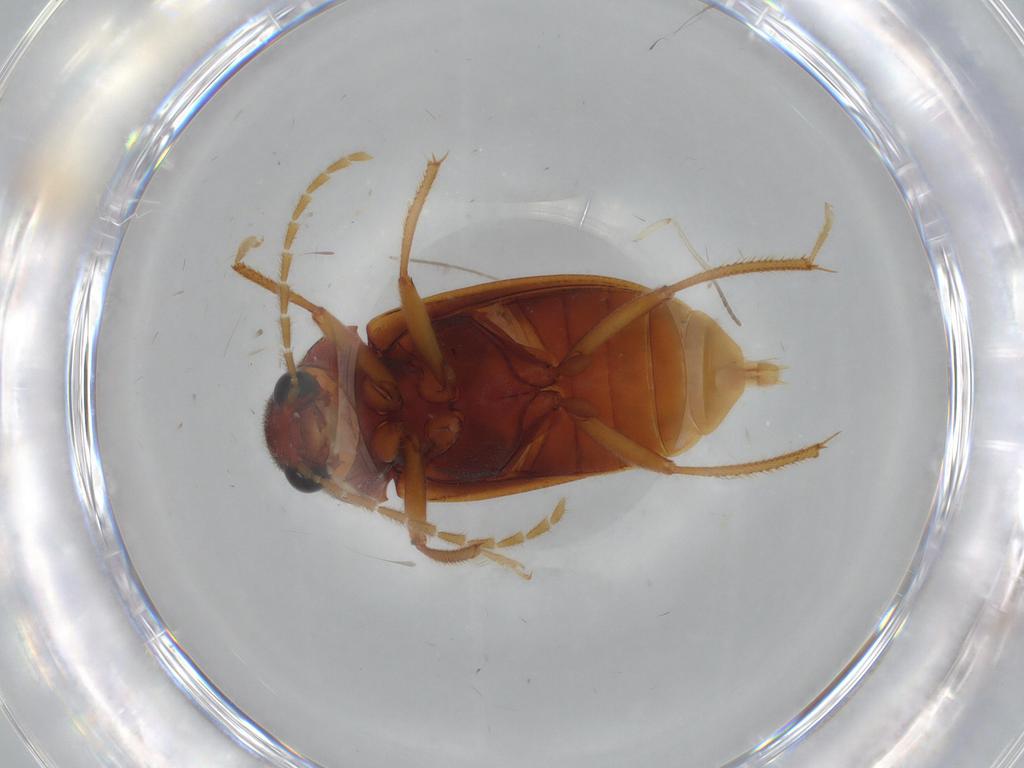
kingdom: Animalia
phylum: Arthropoda
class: Insecta
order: Coleoptera
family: Ptilodactylidae
